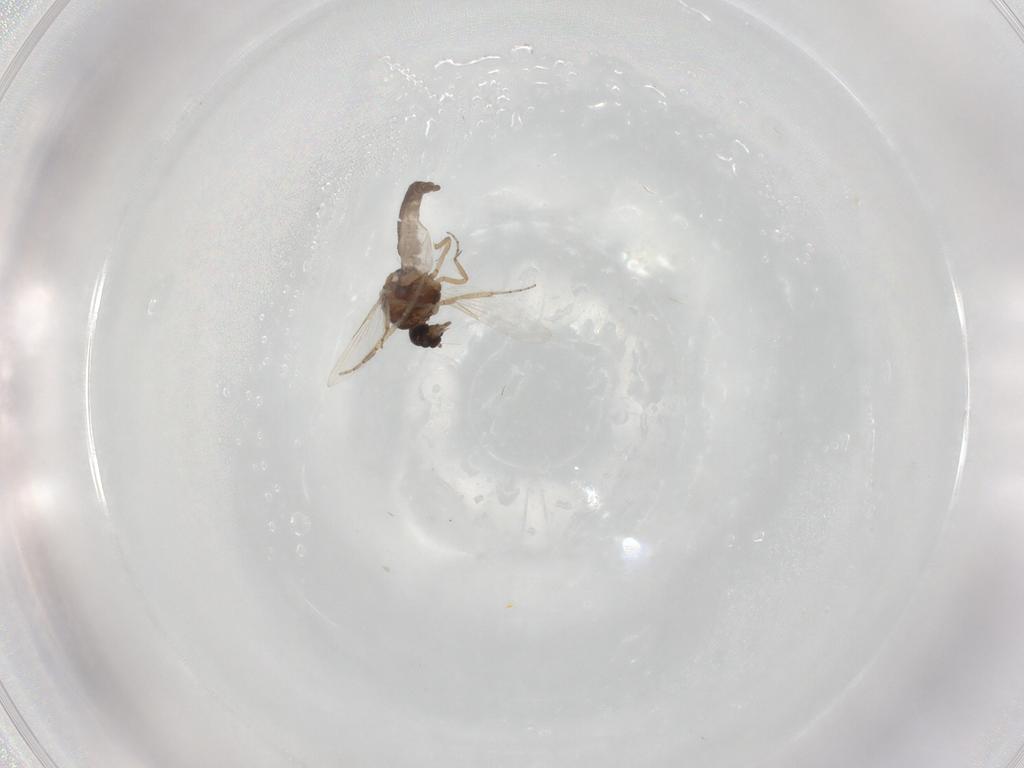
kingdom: Animalia
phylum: Arthropoda
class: Insecta
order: Diptera
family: Ceratopogonidae
